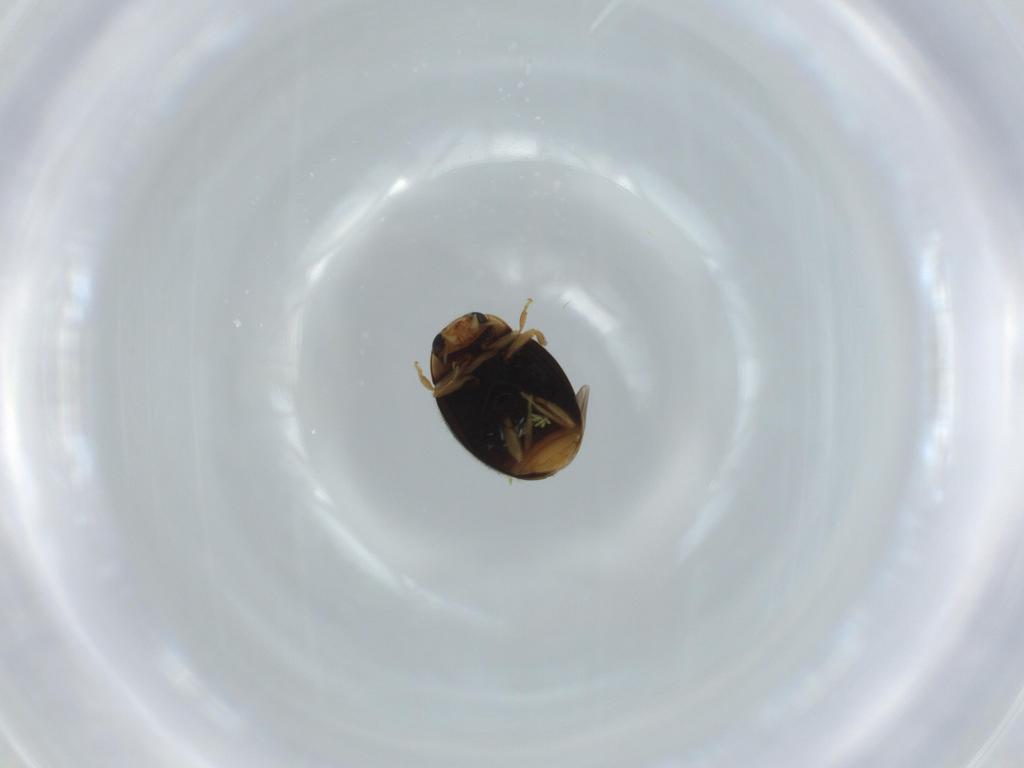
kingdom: Animalia
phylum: Arthropoda
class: Insecta
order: Coleoptera
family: Coccinellidae
